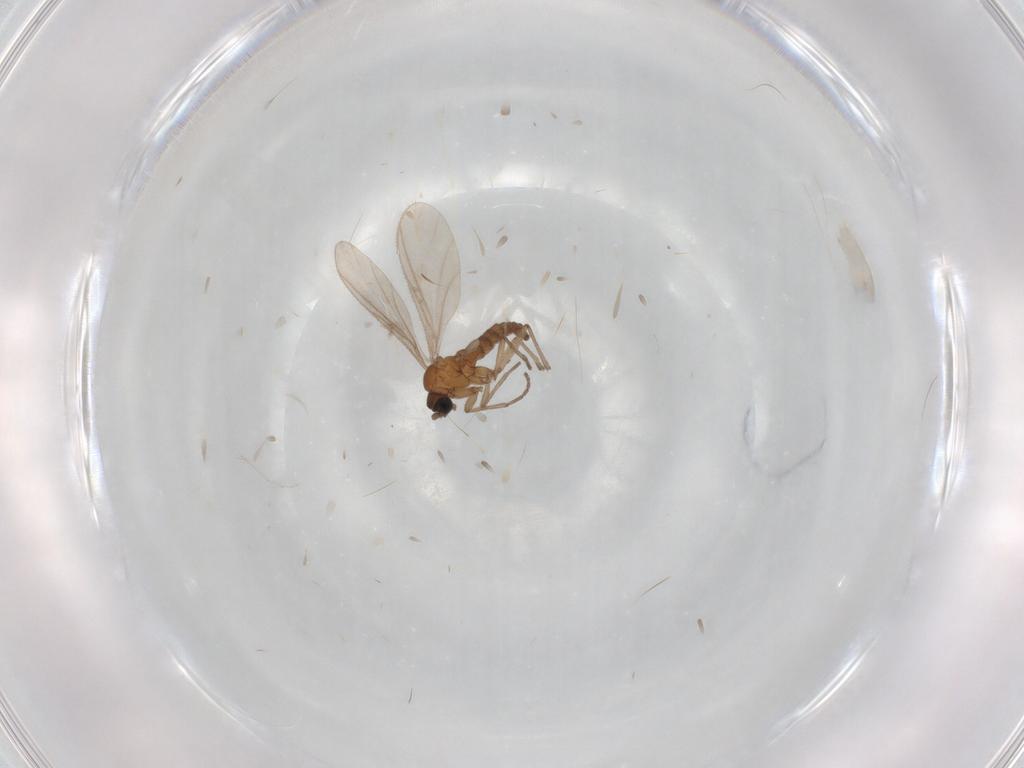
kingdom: Animalia
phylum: Arthropoda
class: Insecta
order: Diptera
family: Sciaridae
